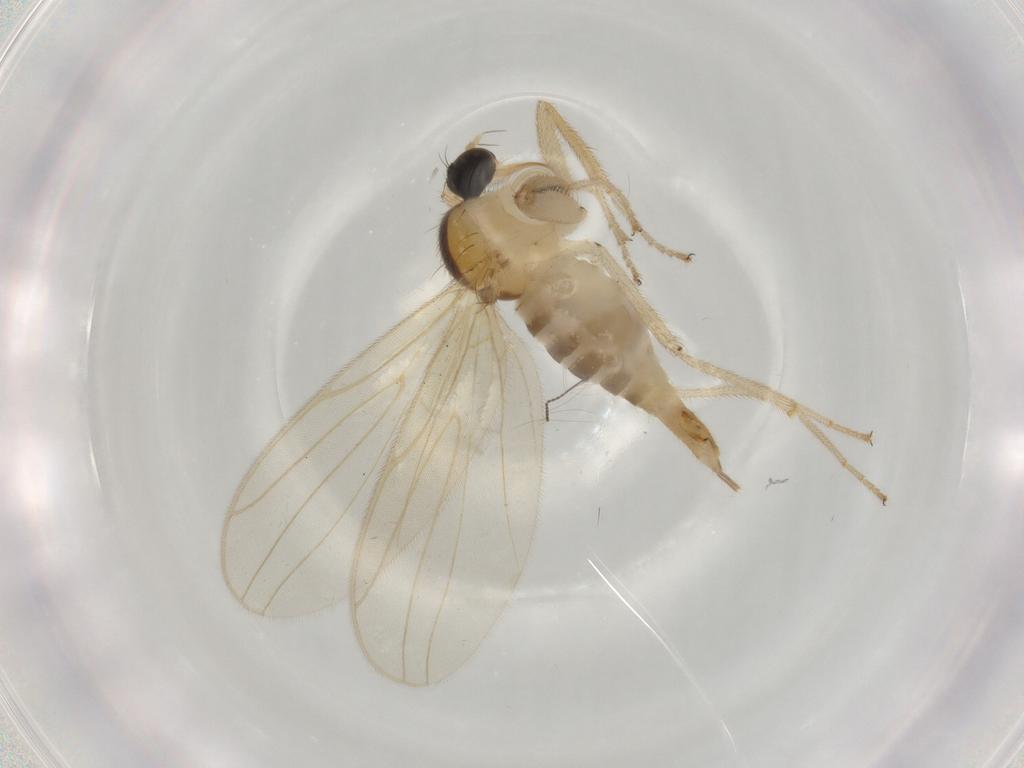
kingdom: Animalia
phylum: Arthropoda
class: Insecta
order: Diptera
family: Hybotidae
